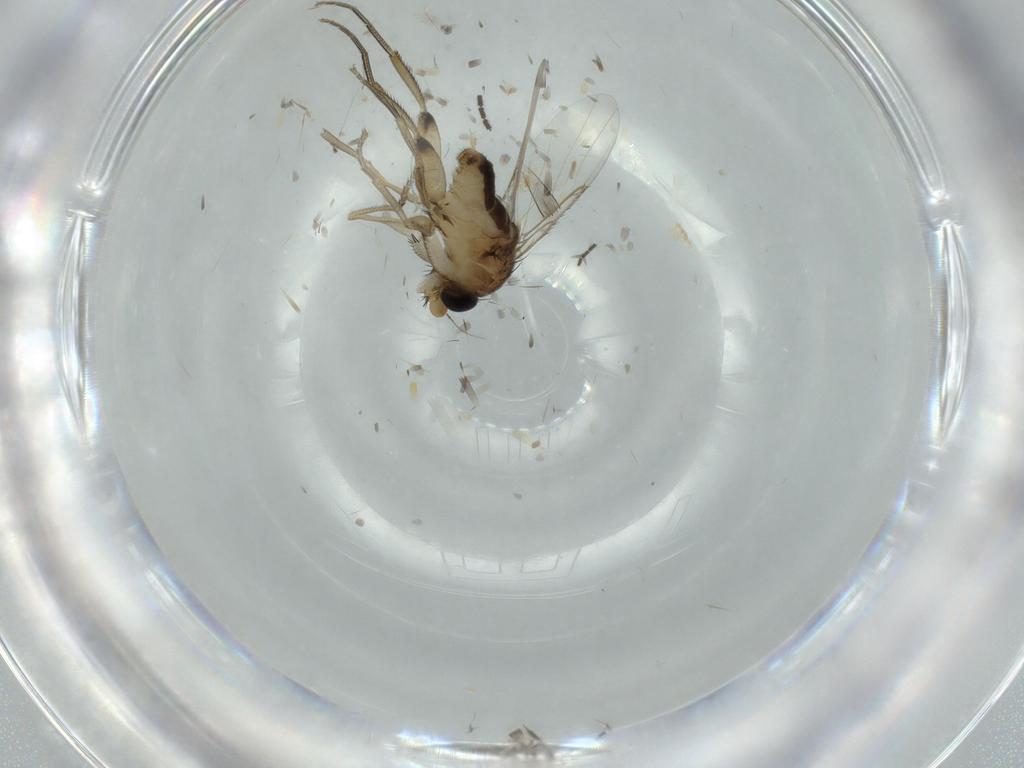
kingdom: Animalia
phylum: Arthropoda
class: Insecta
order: Diptera
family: Phoridae
